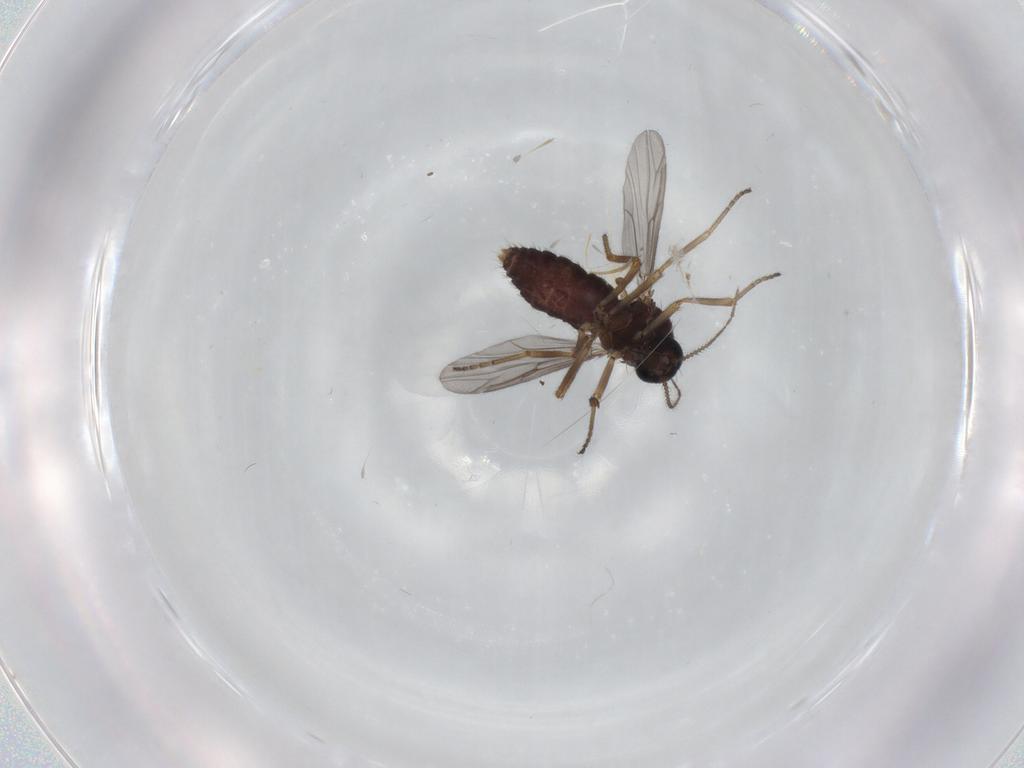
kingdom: Animalia
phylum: Arthropoda
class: Insecta
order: Diptera
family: Ceratopogonidae
